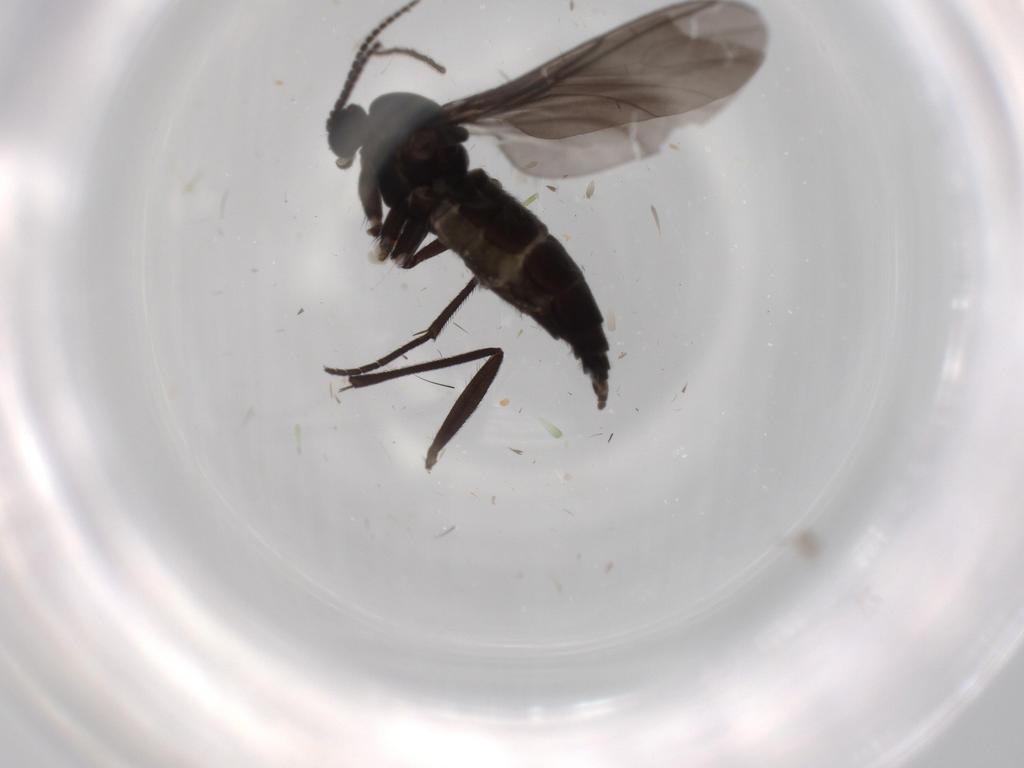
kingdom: Animalia
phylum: Arthropoda
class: Insecta
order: Diptera
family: Sciaridae
